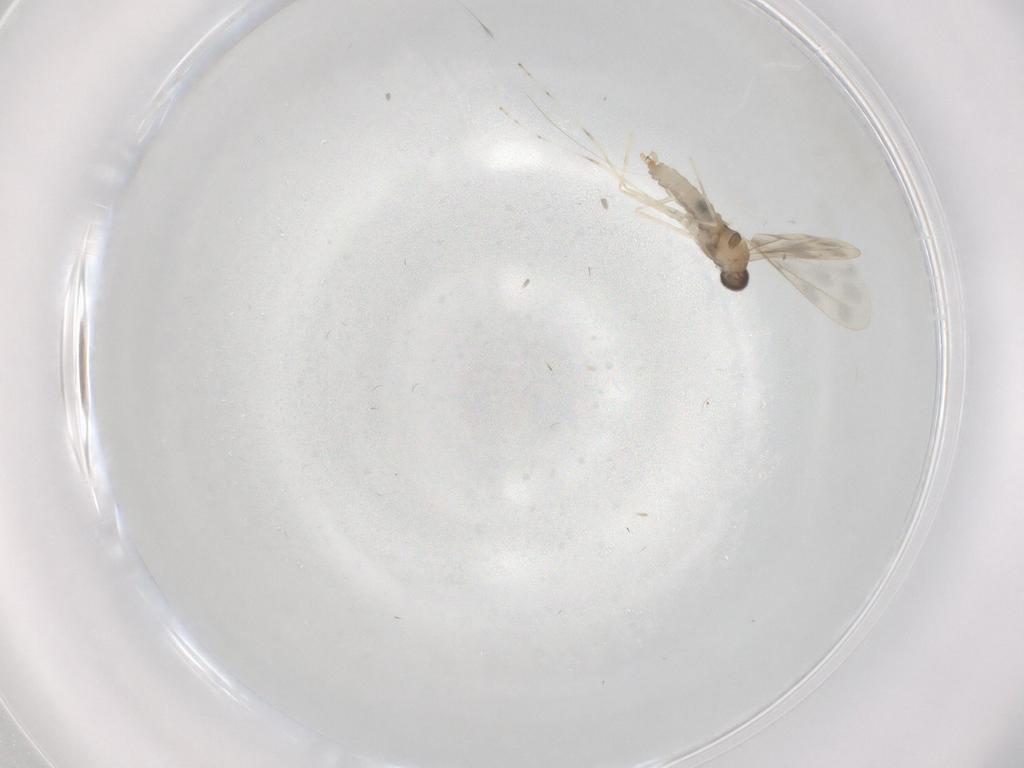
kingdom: Animalia
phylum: Arthropoda
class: Insecta
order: Diptera
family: Cecidomyiidae
